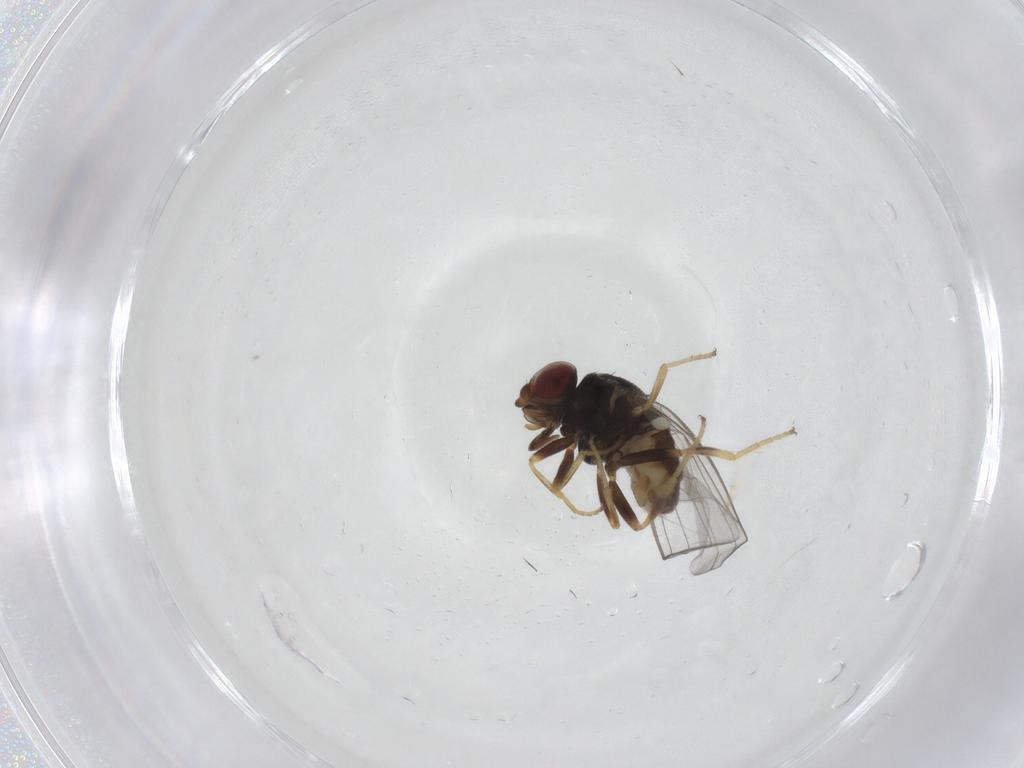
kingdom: Animalia
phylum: Arthropoda
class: Insecta
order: Diptera
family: Chloropidae
